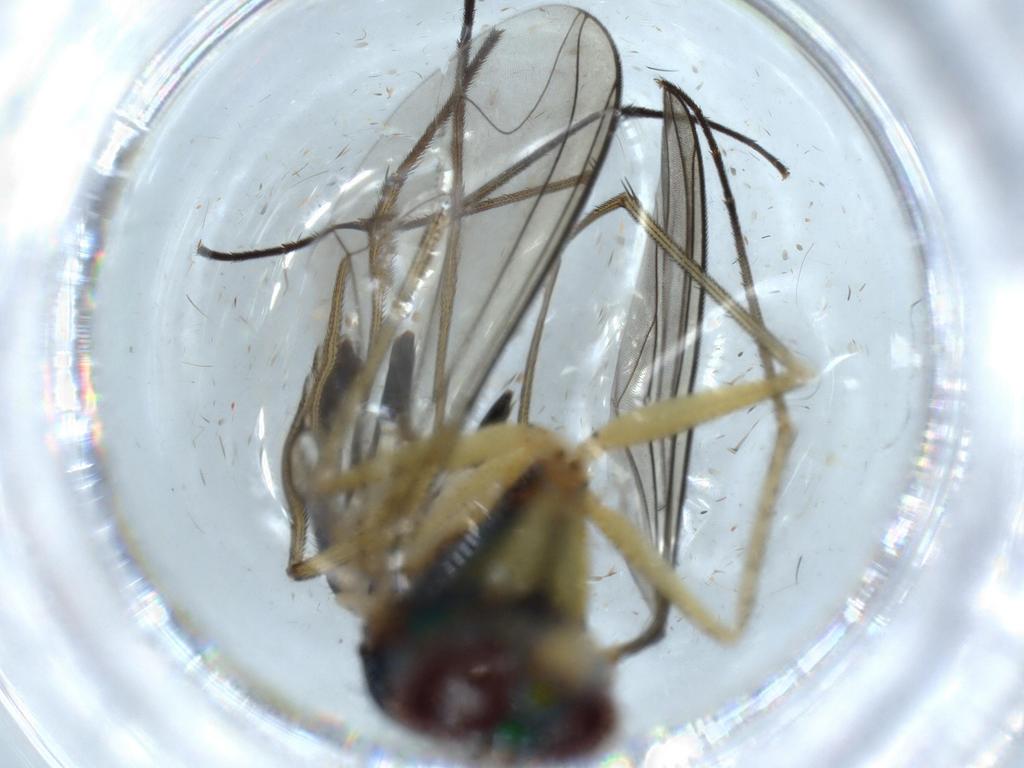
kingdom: Animalia
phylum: Arthropoda
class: Insecta
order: Diptera
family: Dolichopodidae
